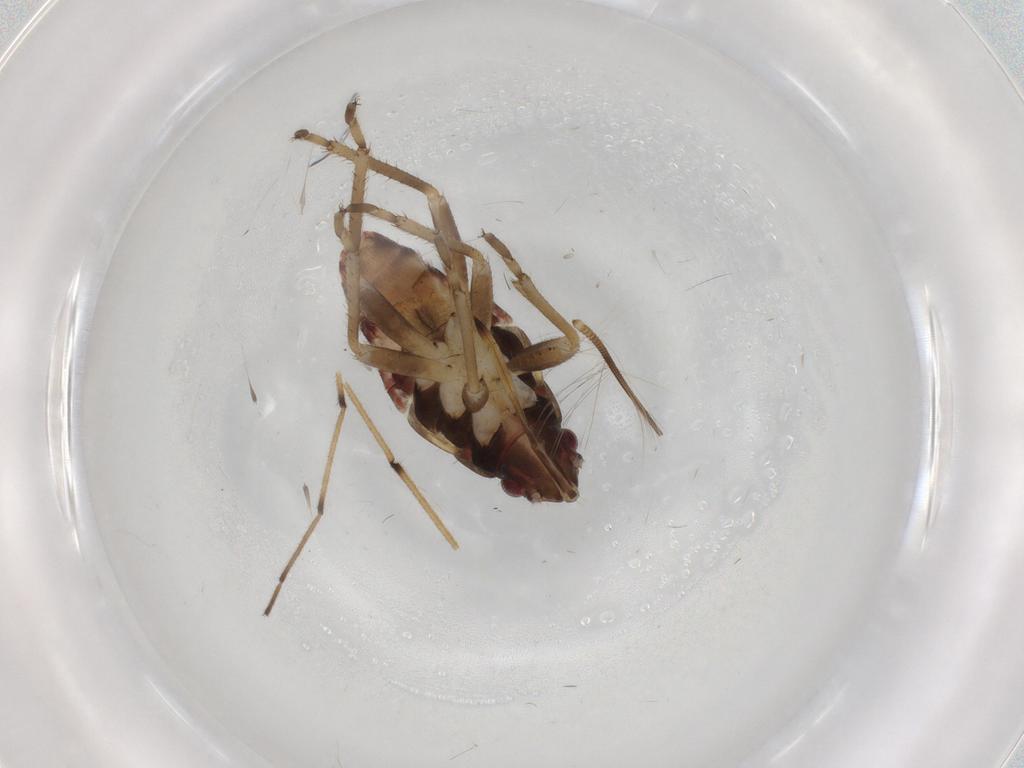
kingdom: Animalia
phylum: Arthropoda
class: Insecta
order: Hemiptera
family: Rhyparochromidae
